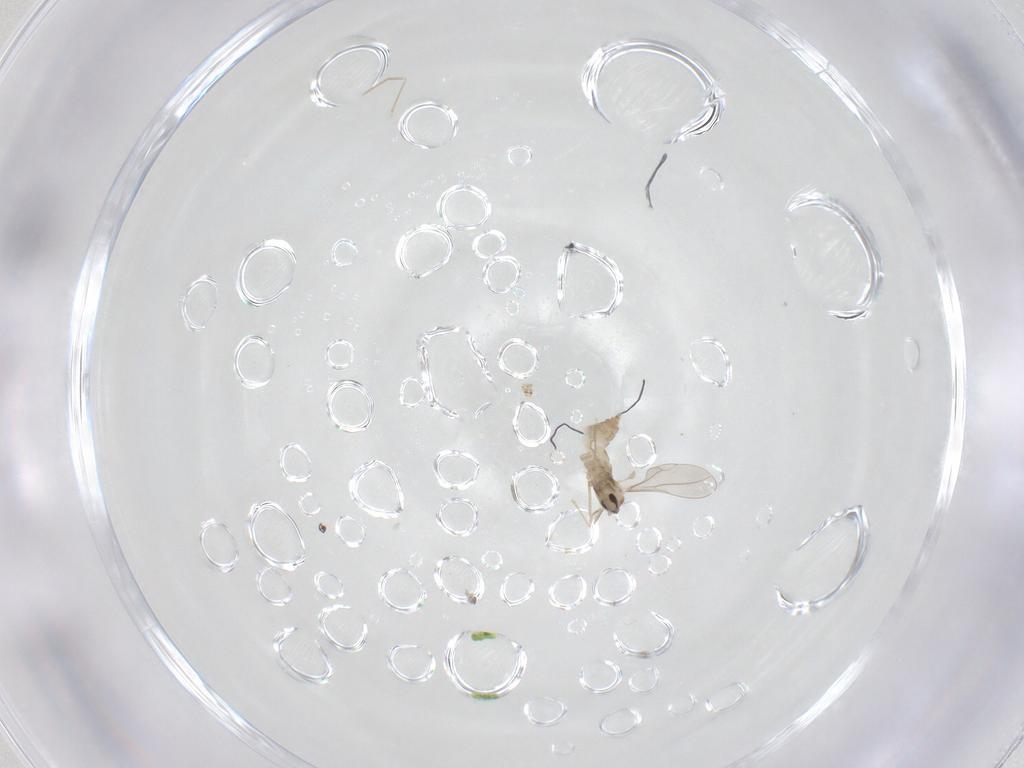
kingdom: Animalia
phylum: Arthropoda
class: Insecta
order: Diptera
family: Cecidomyiidae
